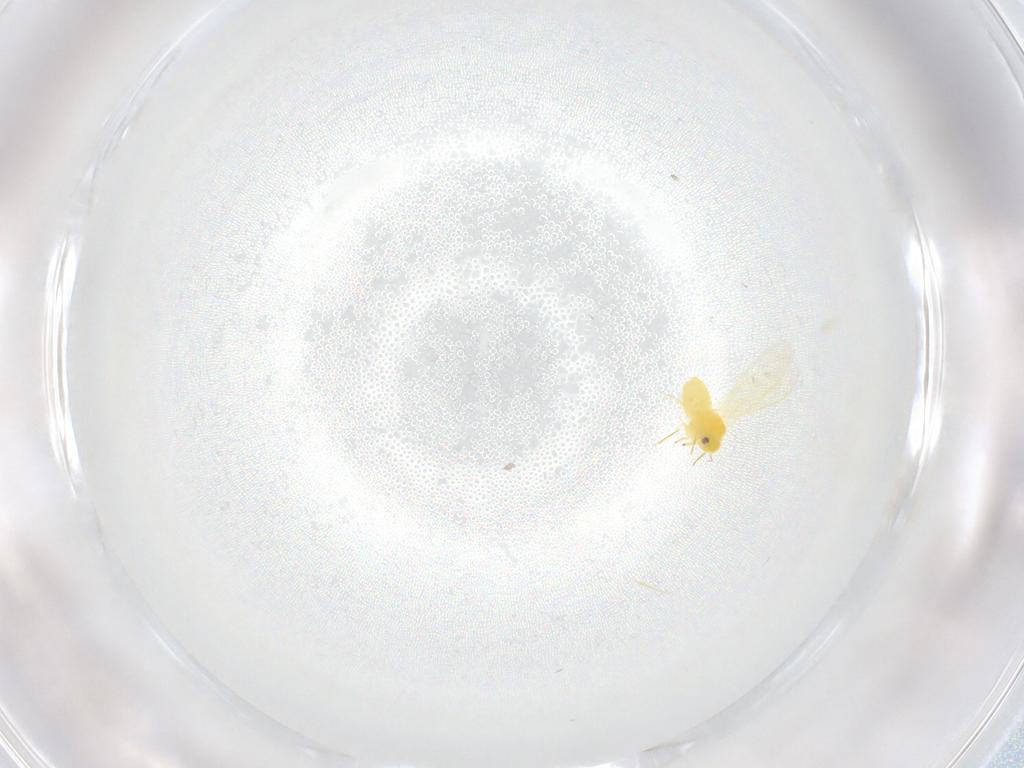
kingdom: Animalia
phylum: Arthropoda
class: Insecta
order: Hemiptera
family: Aleyrodidae
